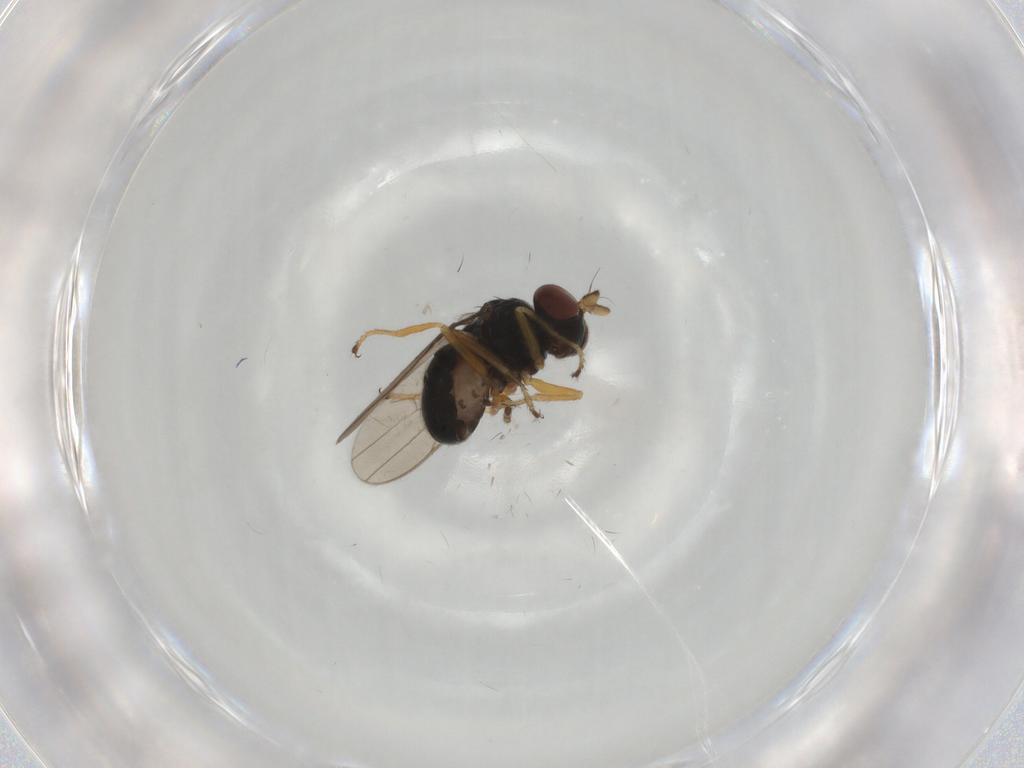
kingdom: Animalia
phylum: Arthropoda
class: Insecta
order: Diptera
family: Ephydridae
